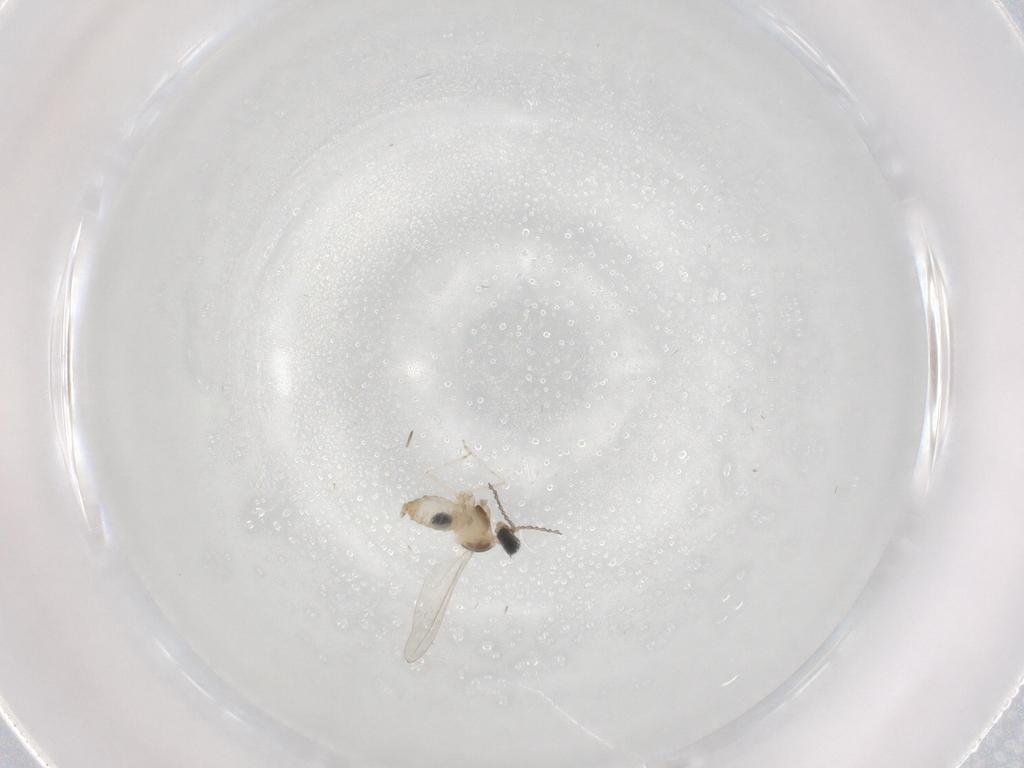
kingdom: Animalia
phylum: Arthropoda
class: Insecta
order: Diptera
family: Cecidomyiidae
